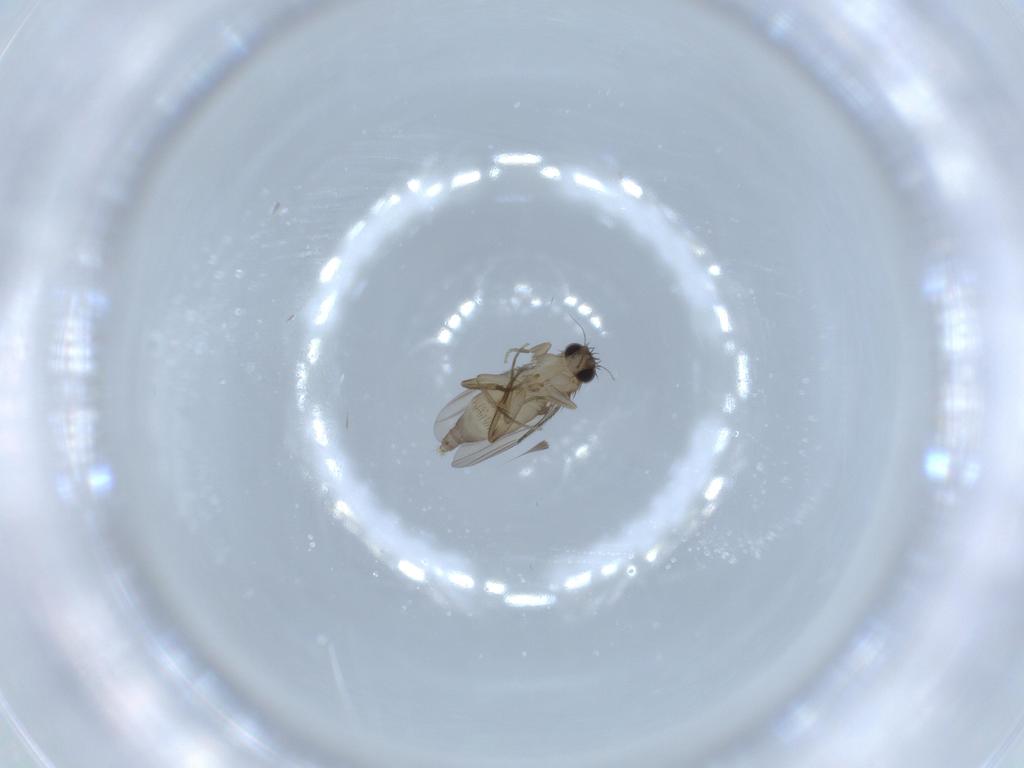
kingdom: Animalia
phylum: Arthropoda
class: Insecta
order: Diptera
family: Phoridae
